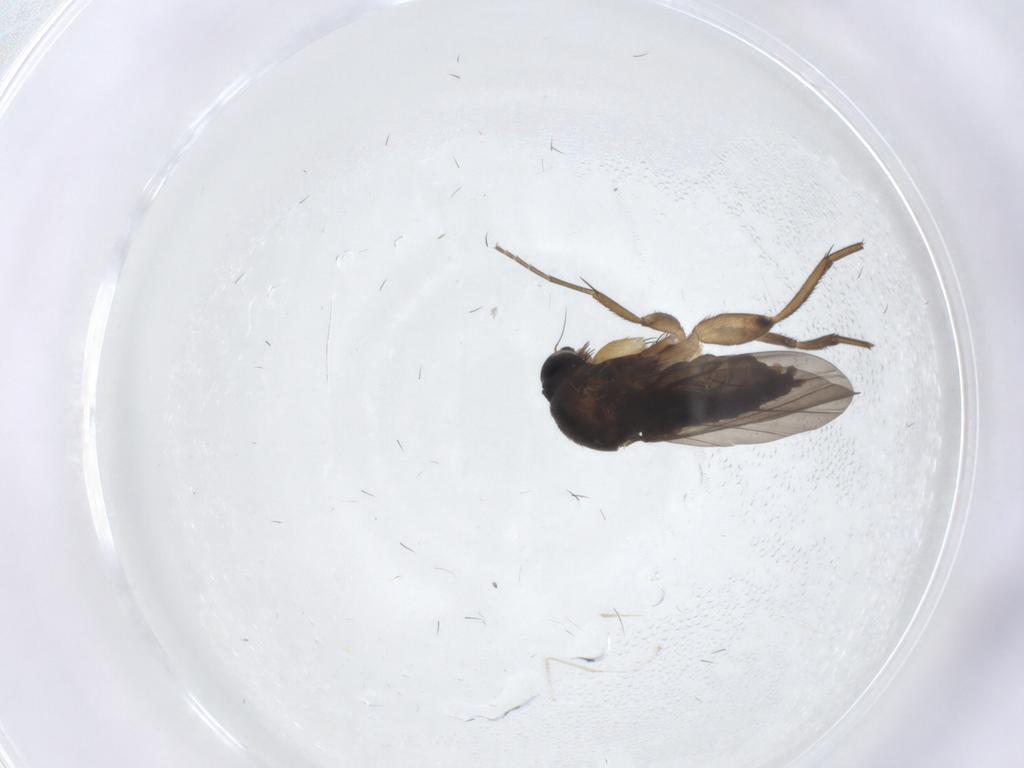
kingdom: Animalia
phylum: Arthropoda
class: Insecta
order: Diptera
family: Phoridae
